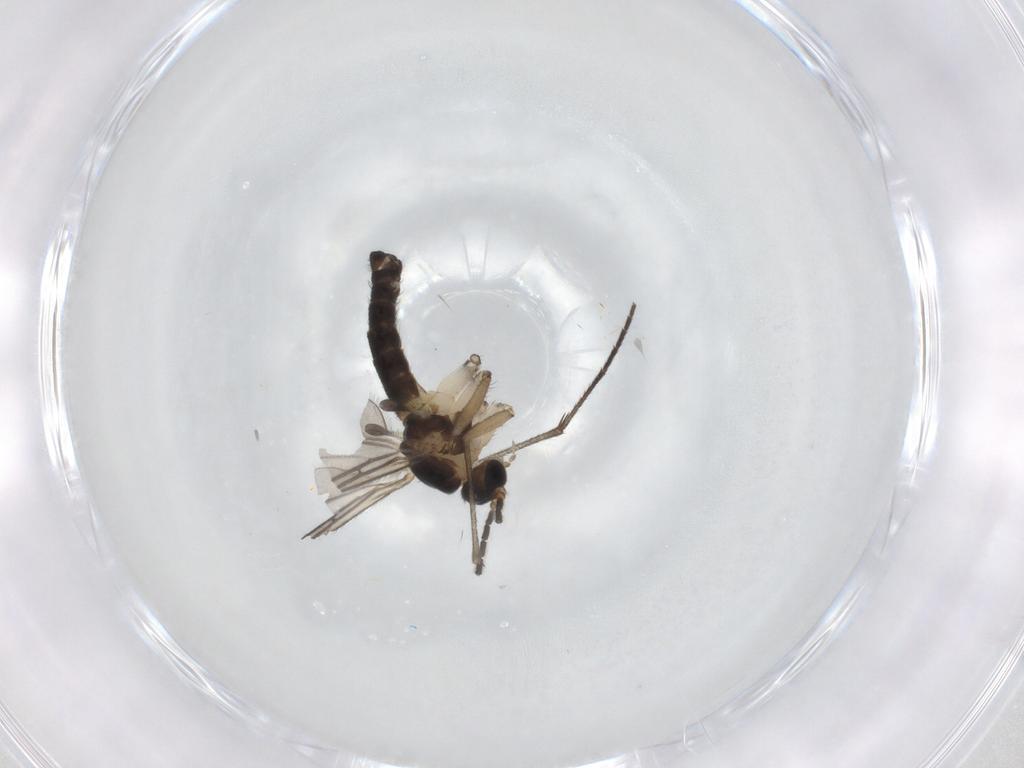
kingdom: Animalia
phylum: Arthropoda
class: Insecta
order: Diptera
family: Sciaridae
